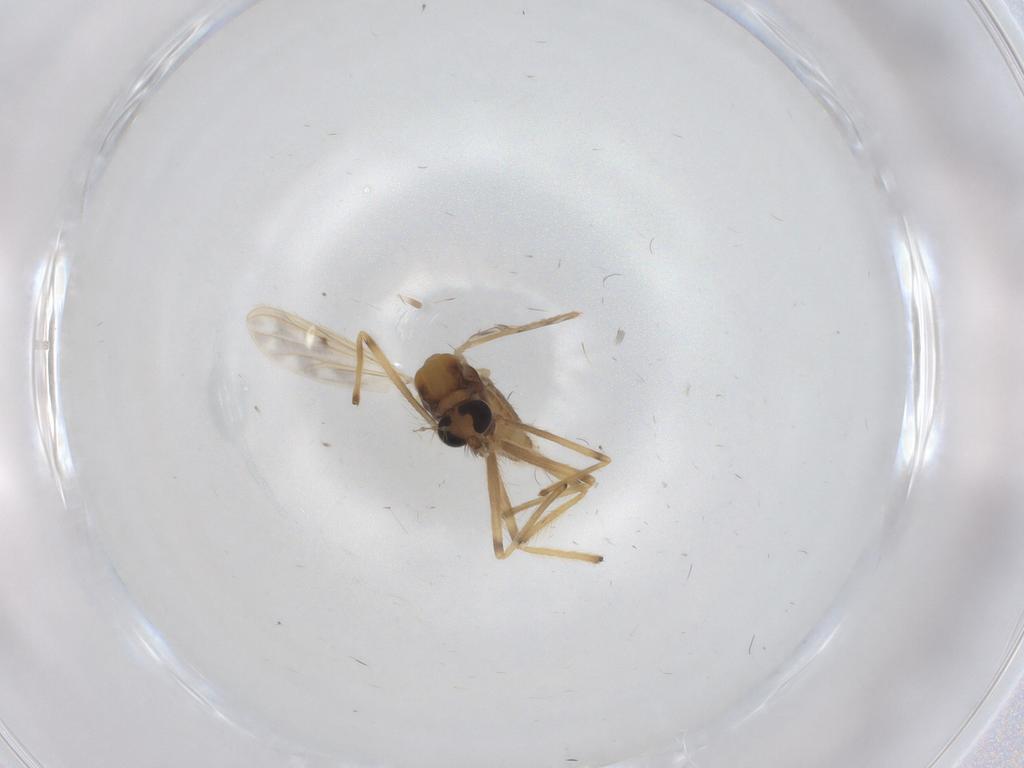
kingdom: Animalia
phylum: Arthropoda
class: Insecta
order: Diptera
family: Chironomidae
